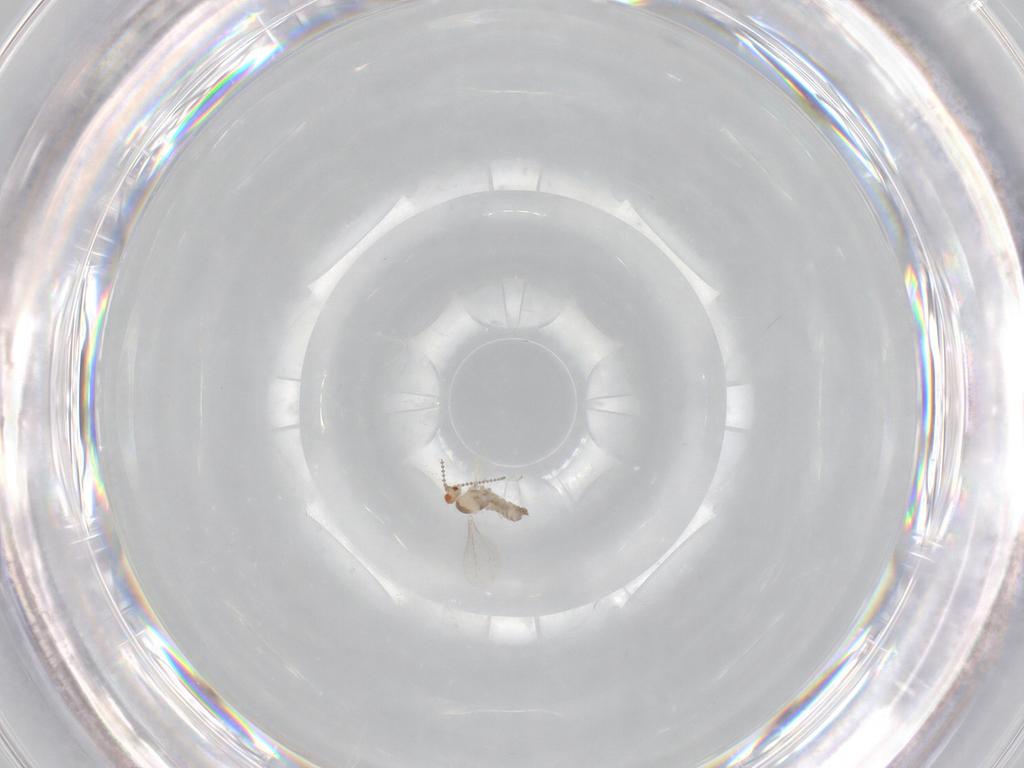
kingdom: Animalia
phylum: Arthropoda
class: Insecta
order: Diptera
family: Cecidomyiidae
